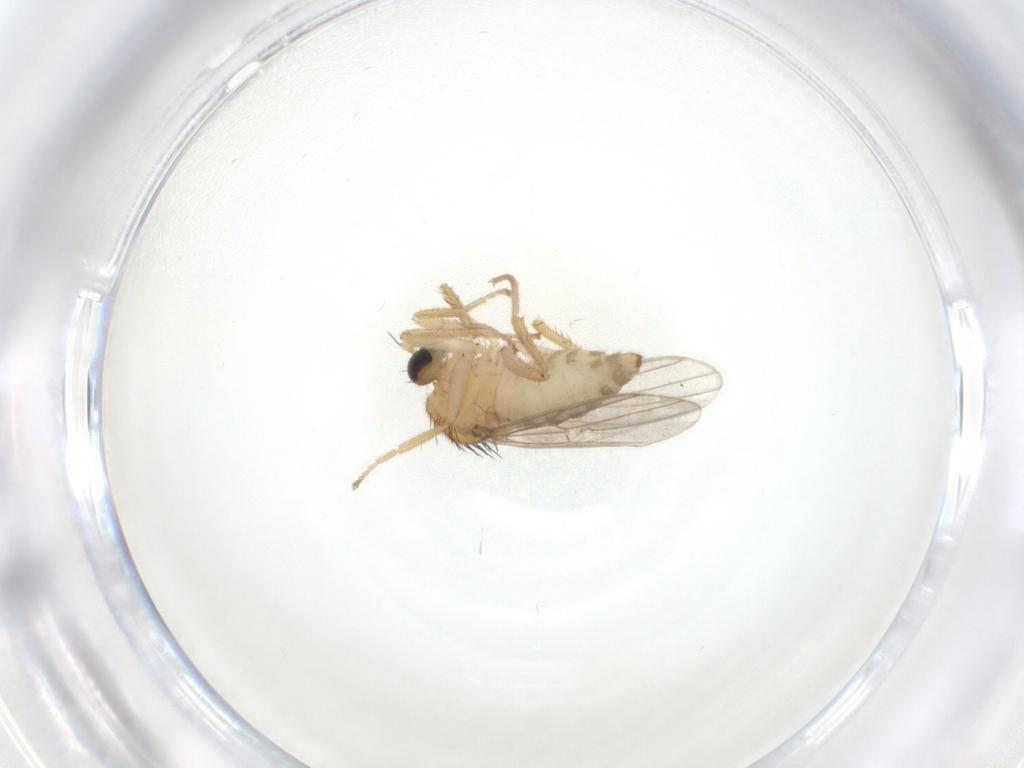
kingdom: Animalia
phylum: Arthropoda
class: Insecta
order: Diptera
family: Hybotidae
